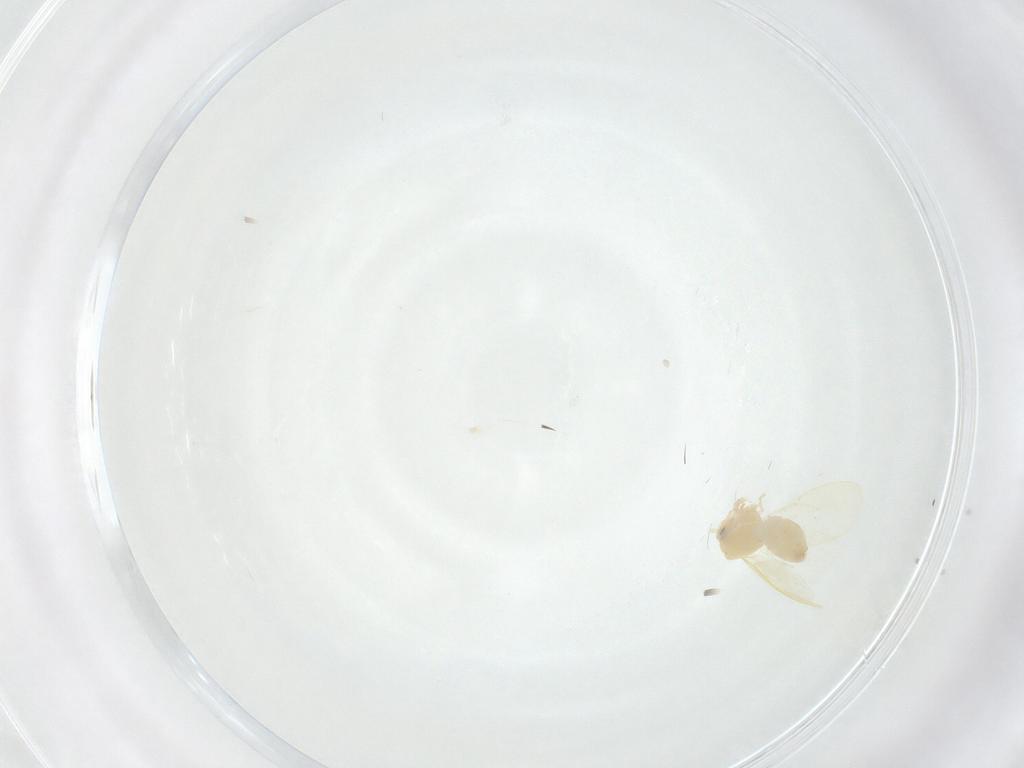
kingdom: Animalia
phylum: Arthropoda
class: Insecta
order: Hemiptera
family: Aleyrodidae
